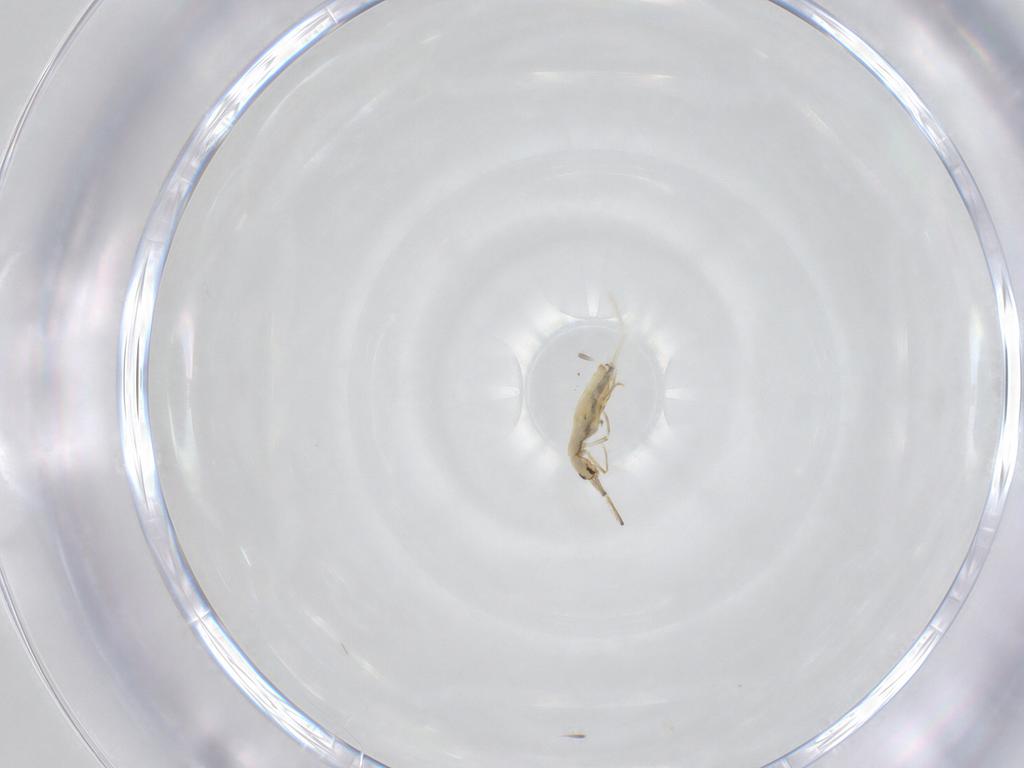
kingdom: Animalia
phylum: Arthropoda
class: Collembola
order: Entomobryomorpha
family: Paronellidae
